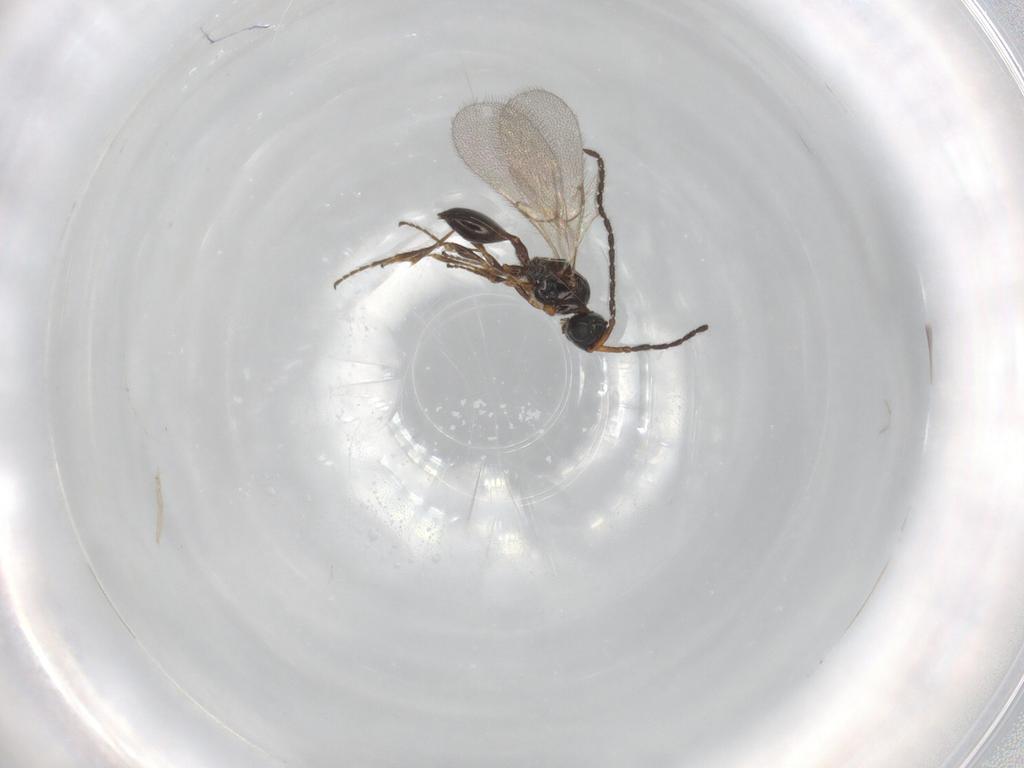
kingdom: Animalia
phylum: Arthropoda
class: Insecta
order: Hymenoptera
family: Diapriidae
